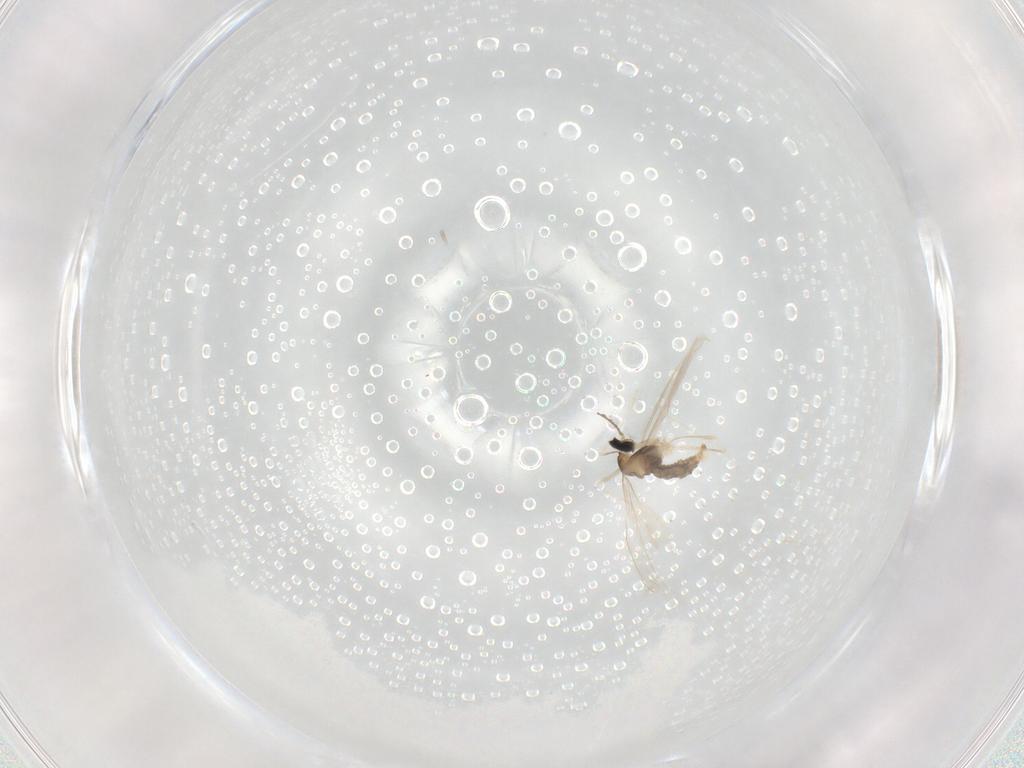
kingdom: Animalia
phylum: Arthropoda
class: Insecta
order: Diptera
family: Cecidomyiidae
